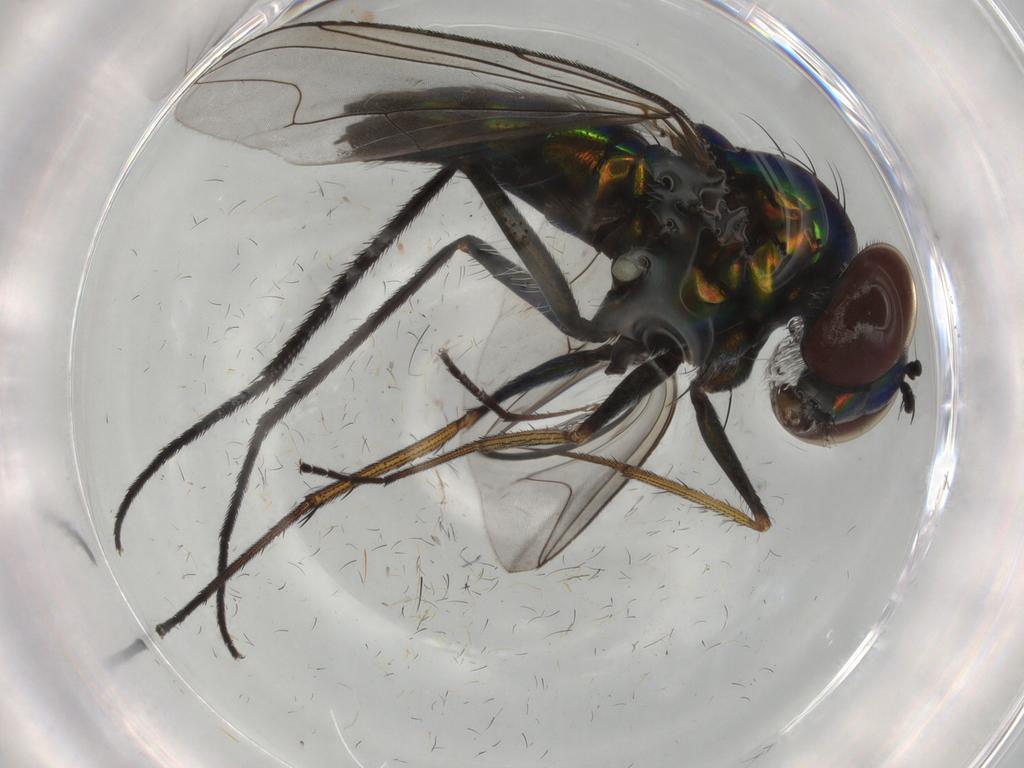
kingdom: Animalia
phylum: Arthropoda
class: Insecta
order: Diptera
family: Dolichopodidae
